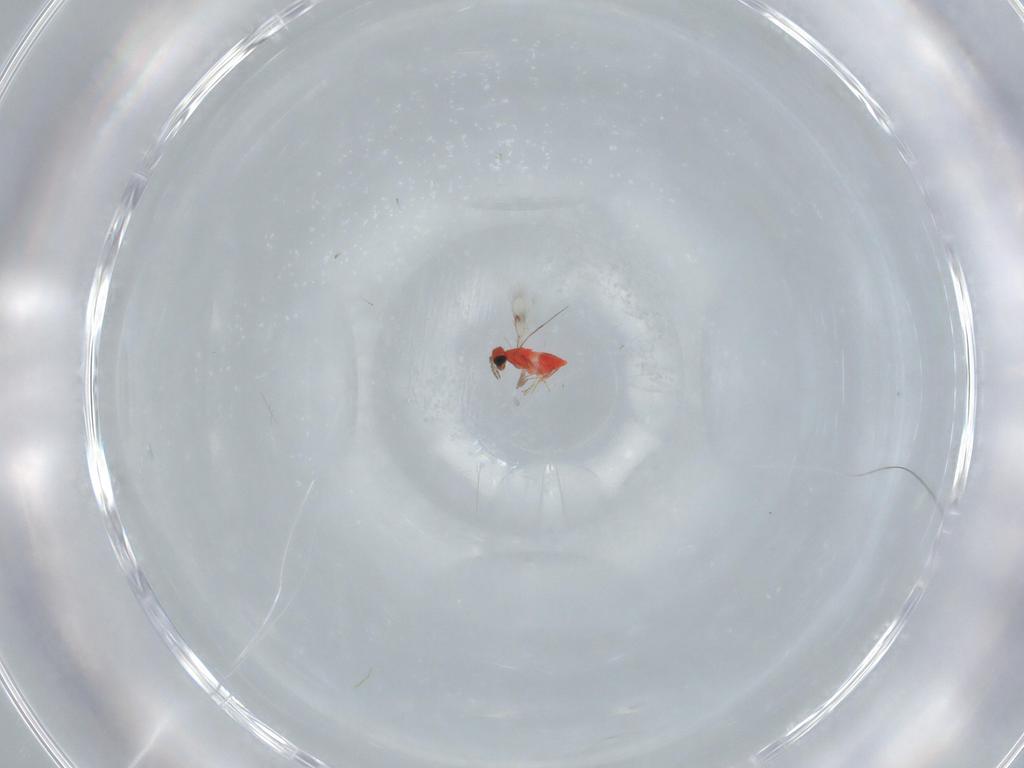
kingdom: Animalia
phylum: Arthropoda
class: Insecta
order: Hymenoptera
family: Trichogrammatidae
